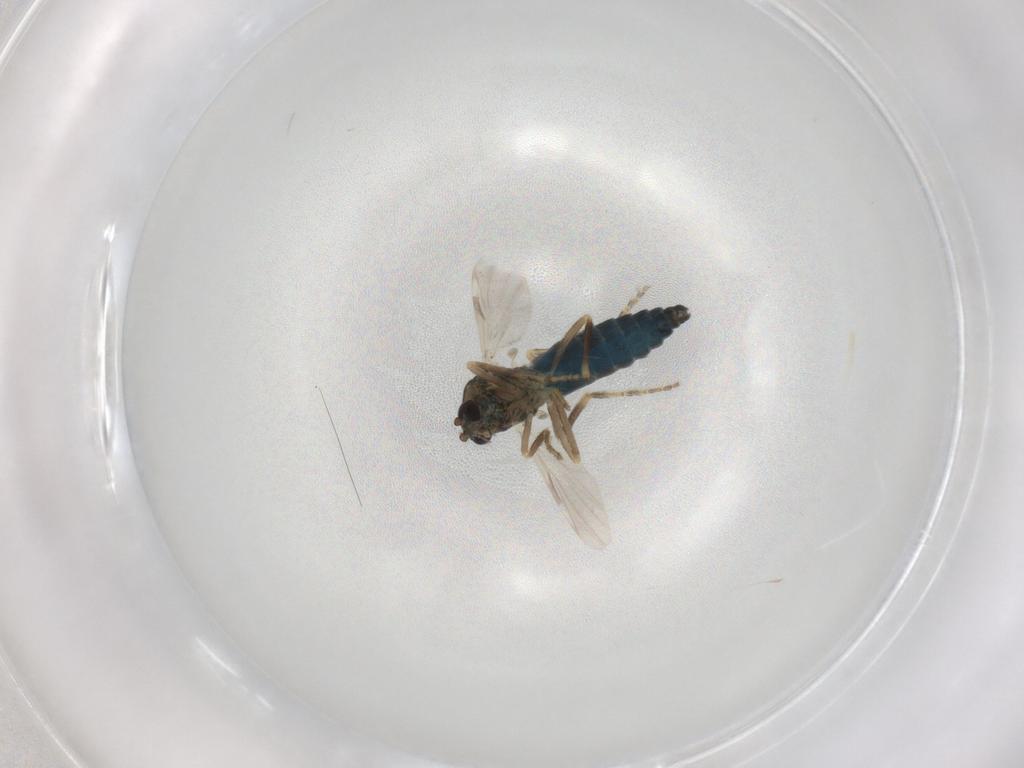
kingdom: Animalia
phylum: Arthropoda
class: Insecta
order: Diptera
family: Ceratopogonidae
